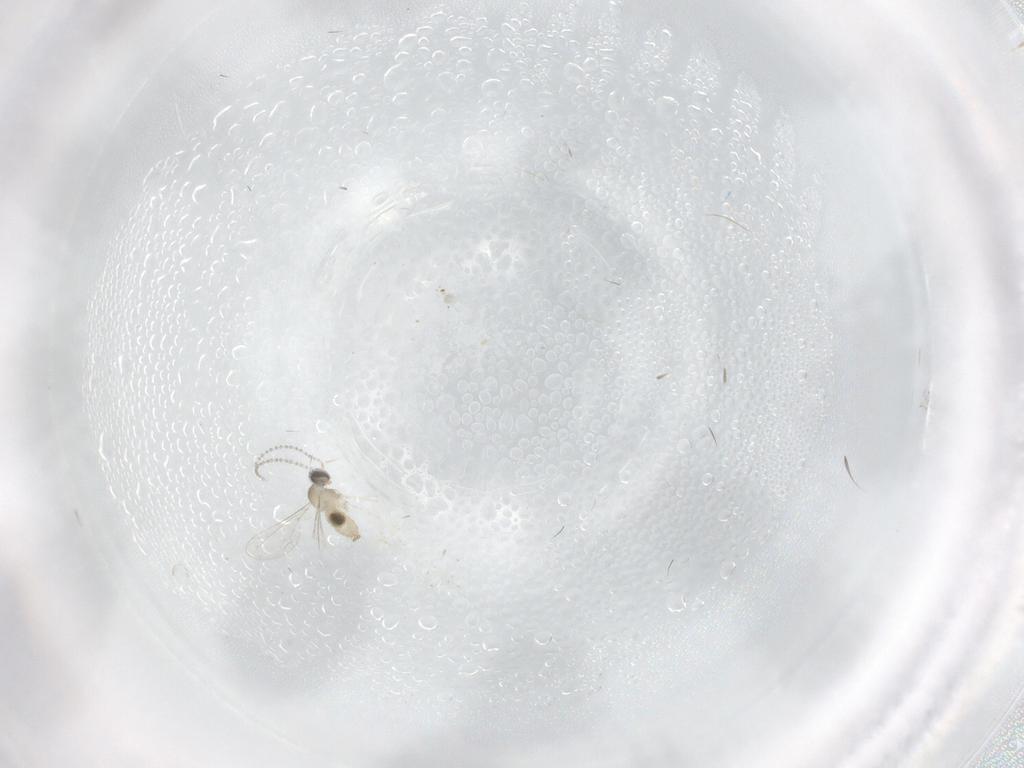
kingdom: Animalia
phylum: Arthropoda
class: Insecta
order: Diptera
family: Cecidomyiidae
